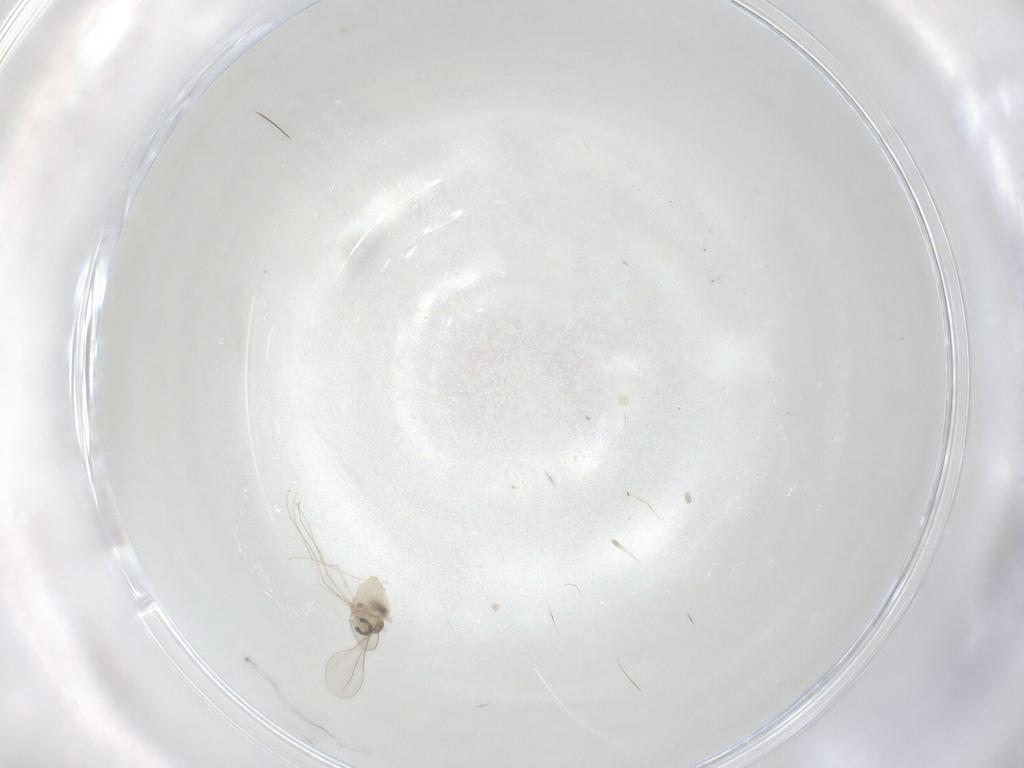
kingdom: Animalia
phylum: Arthropoda
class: Insecta
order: Diptera
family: Cecidomyiidae
